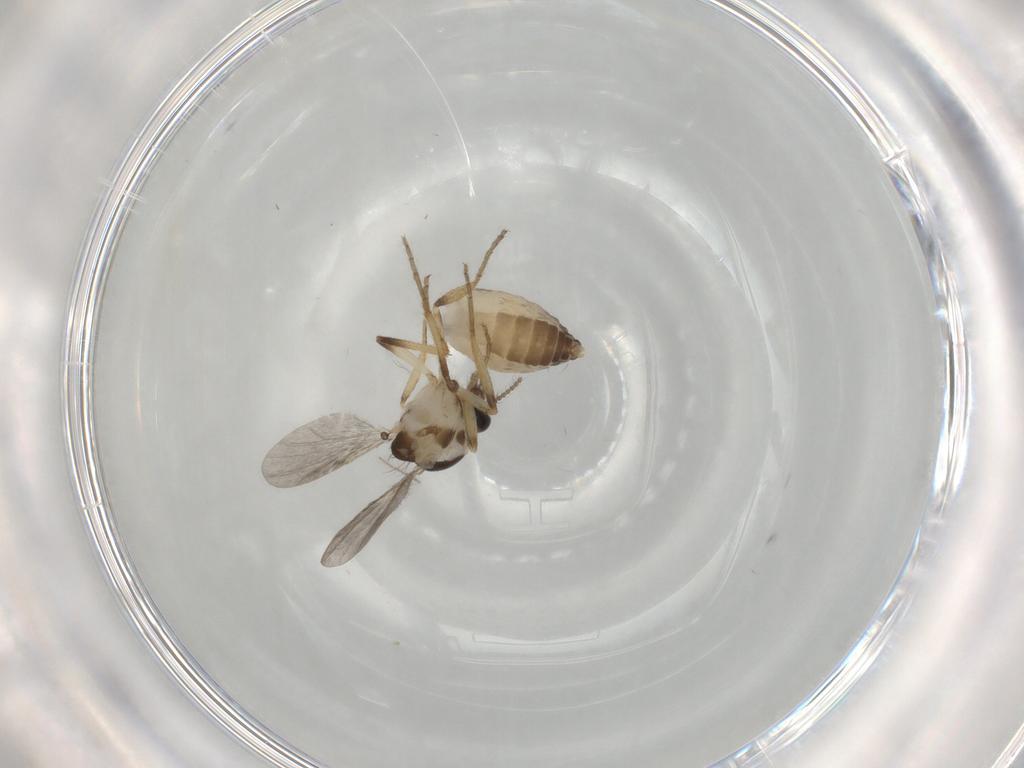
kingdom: Animalia
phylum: Arthropoda
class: Insecta
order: Diptera
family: Ceratopogonidae
